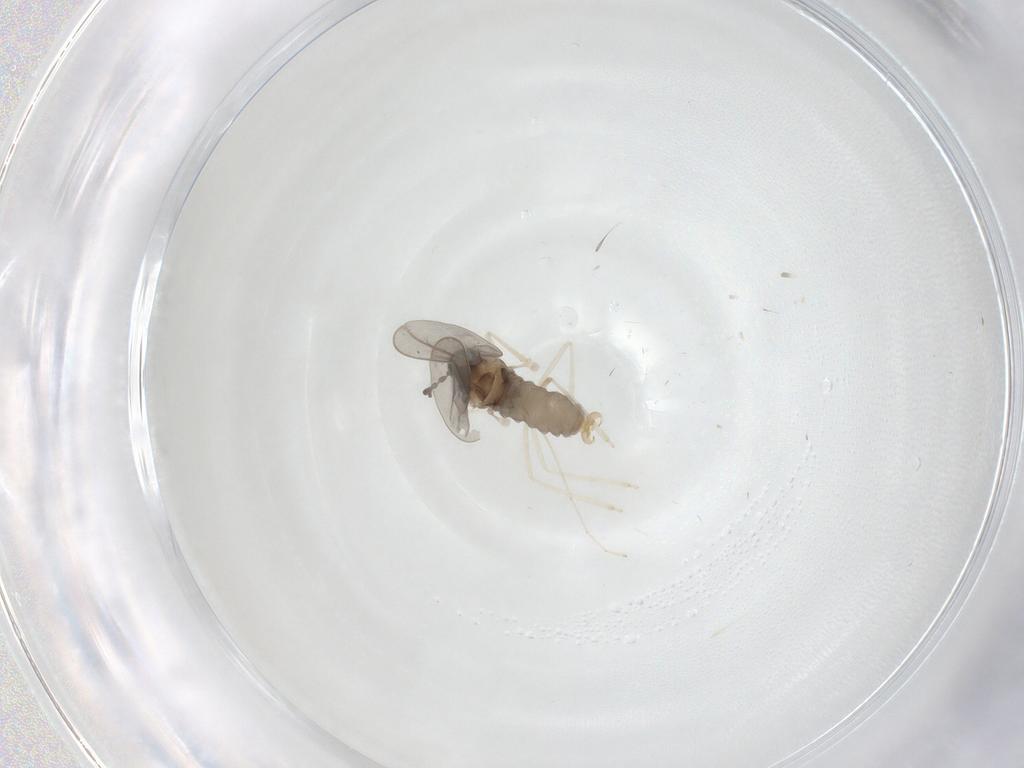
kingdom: Animalia
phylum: Arthropoda
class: Insecta
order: Diptera
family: Cecidomyiidae
